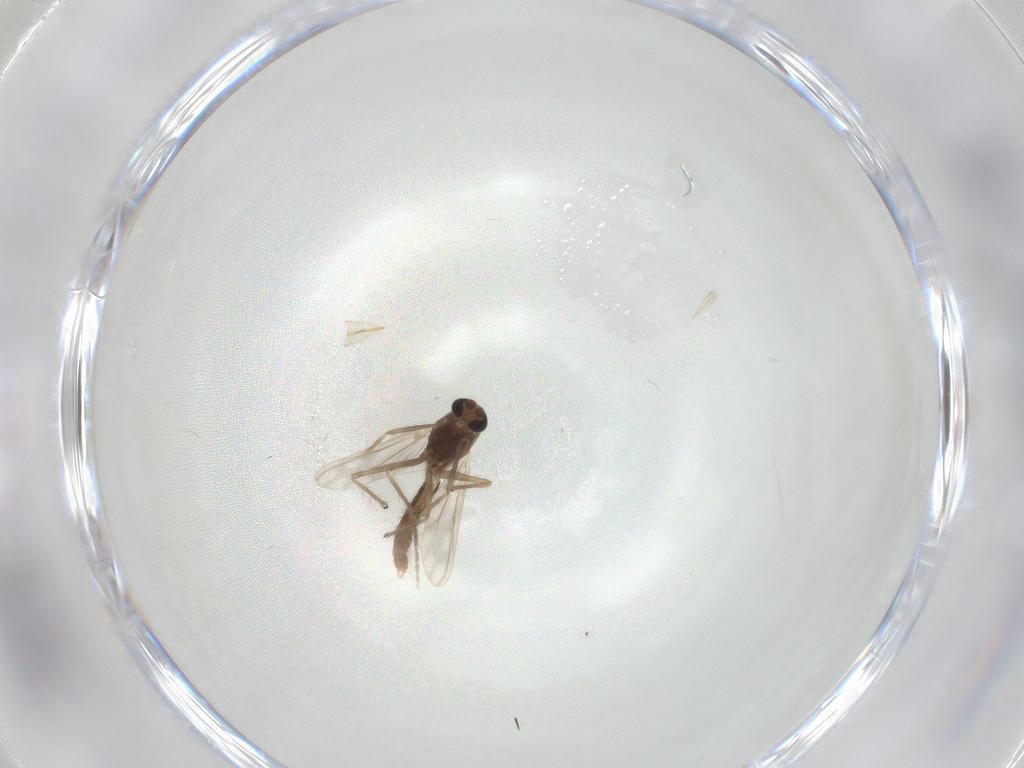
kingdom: Animalia
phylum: Arthropoda
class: Insecta
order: Diptera
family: Chironomidae
